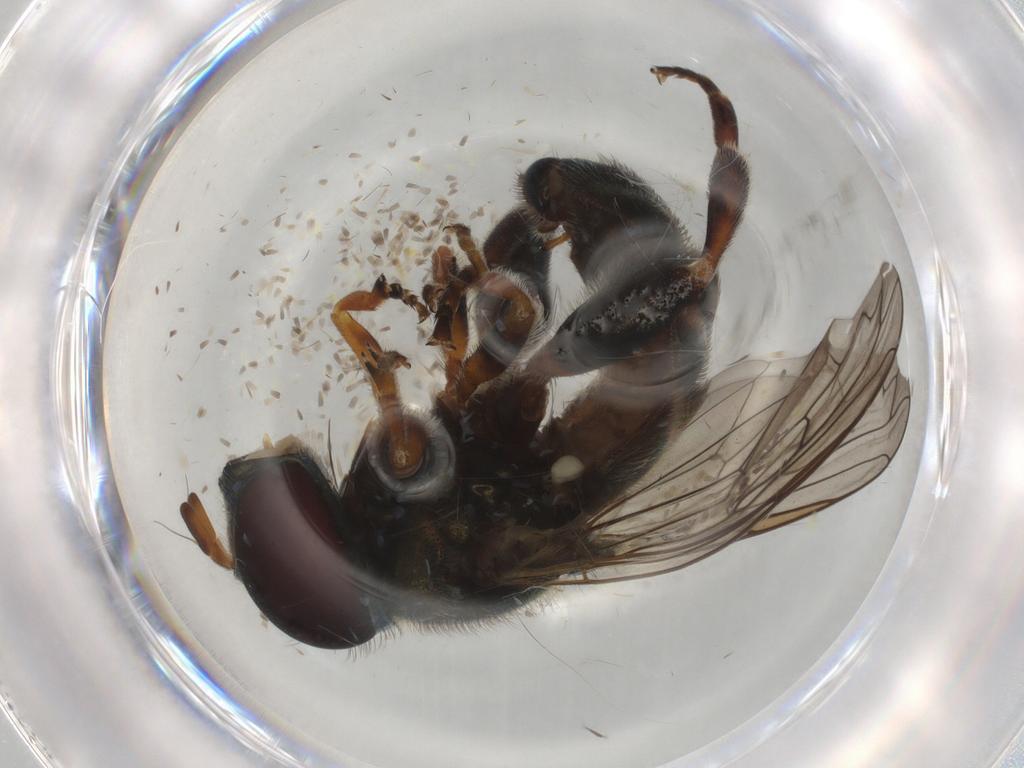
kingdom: Animalia
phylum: Arthropoda
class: Insecta
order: Diptera
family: Syrphidae
